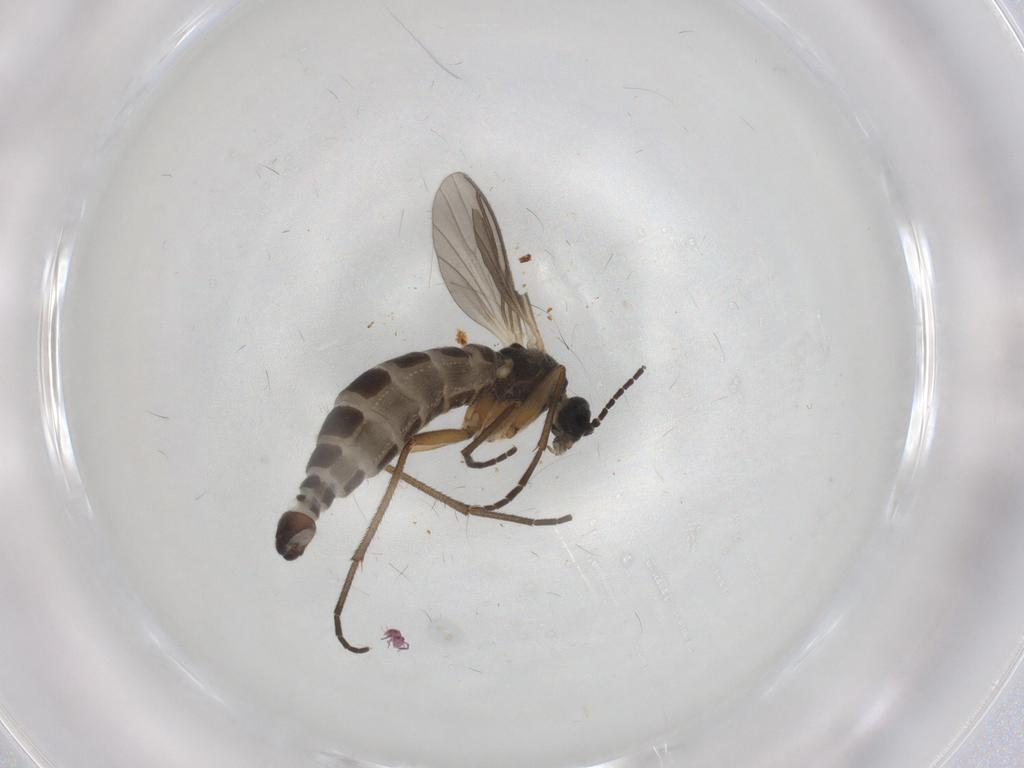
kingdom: Animalia
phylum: Arthropoda
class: Insecta
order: Diptera
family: Sciaridae
